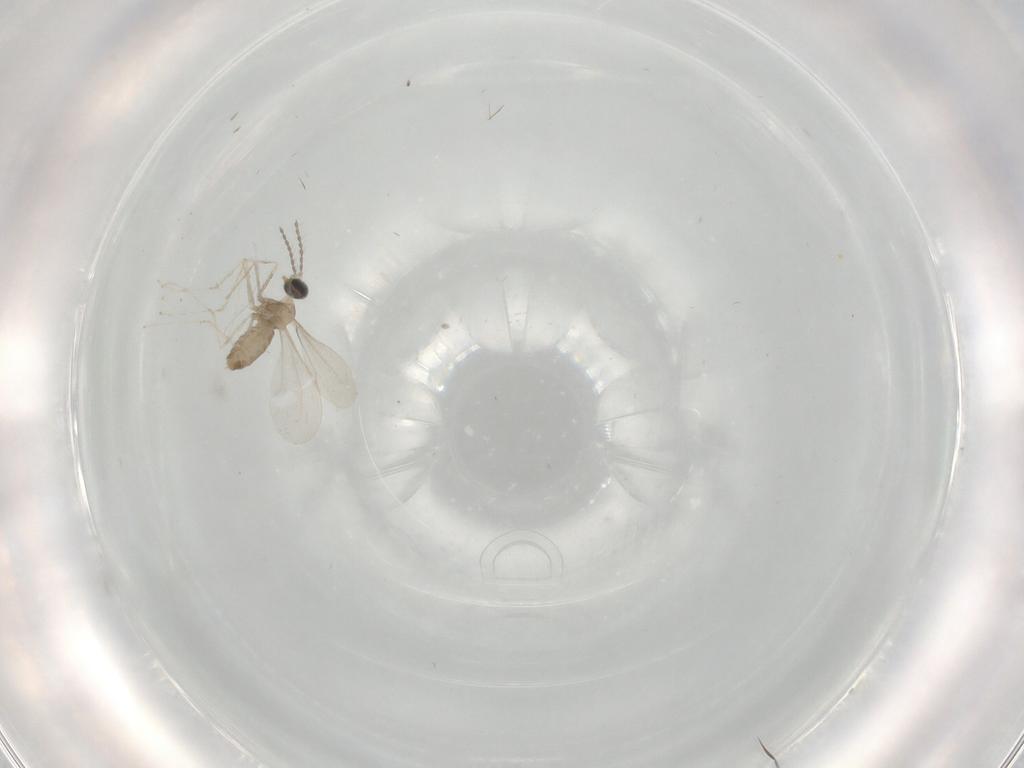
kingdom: Animalia
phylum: Arthropoda
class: Insecta
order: Diptera
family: Cecidomyiidae
